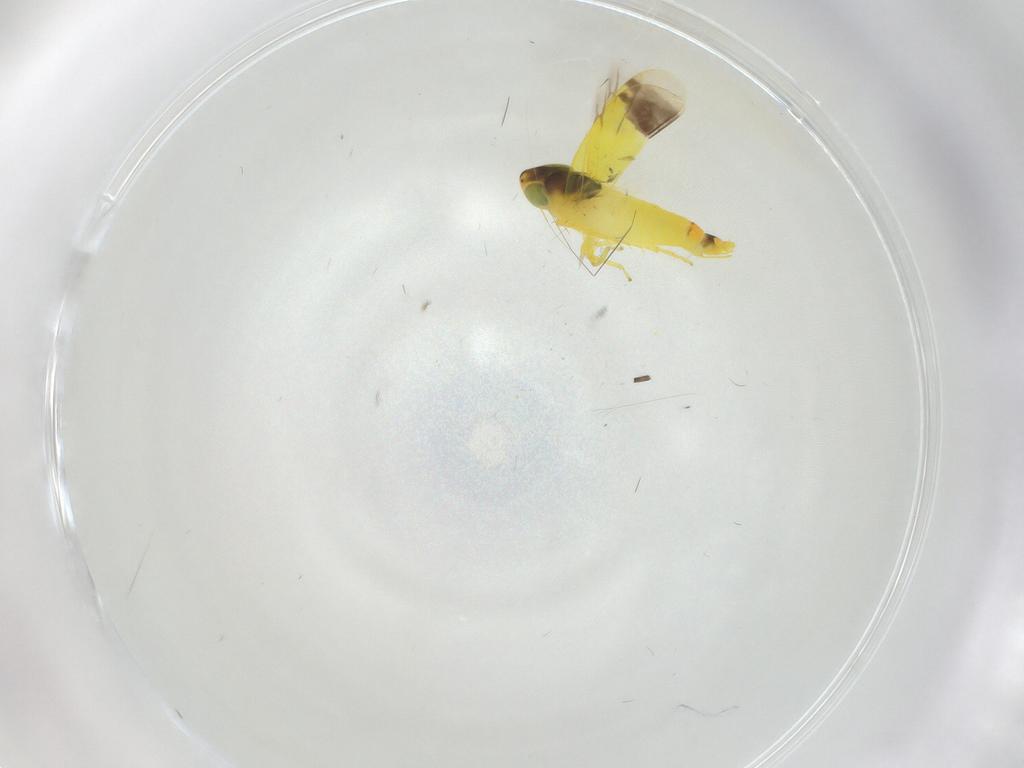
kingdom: Animalia
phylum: Arthropoda
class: Insecta
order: Hemiptera
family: Cicadellidae
